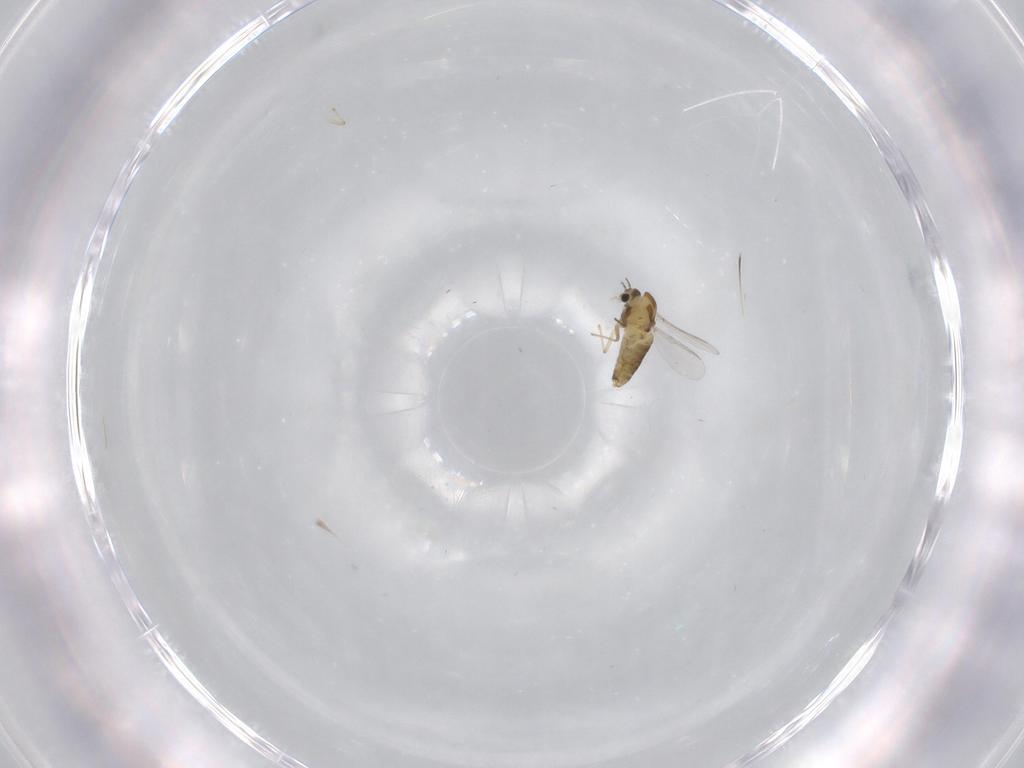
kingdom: Animalia
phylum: Arthropoda
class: Insecta
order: Diptera
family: Chironomidae
